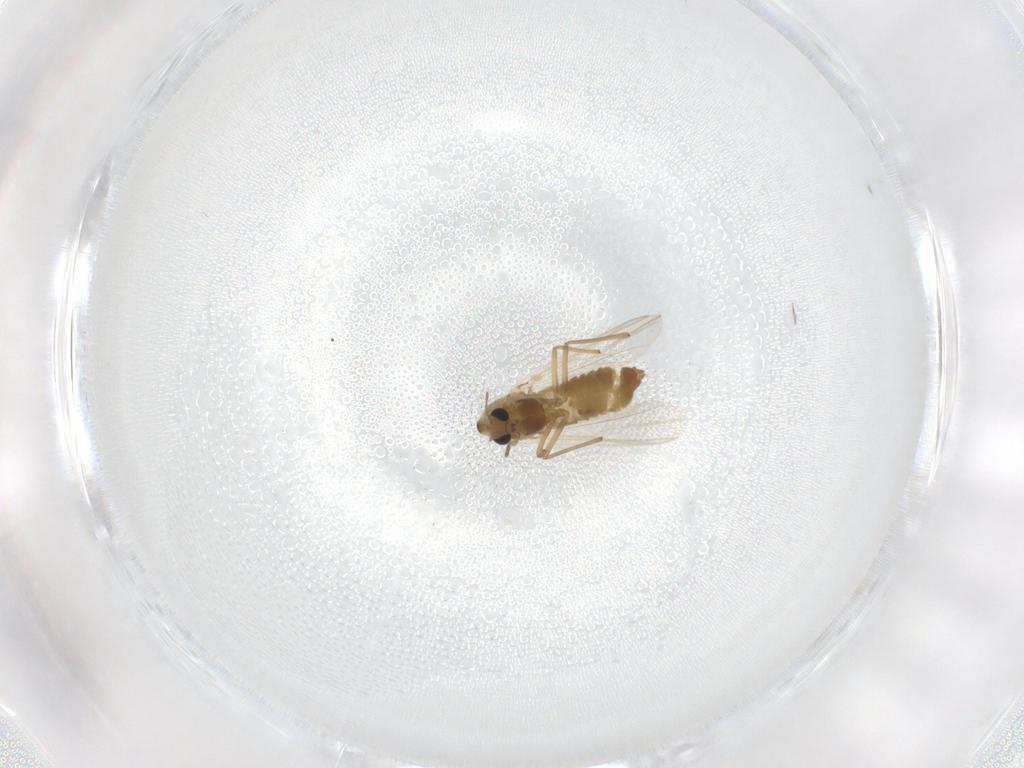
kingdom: Animalia
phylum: Arthropoda
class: Insecta
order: Diptera
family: Chironomidae
